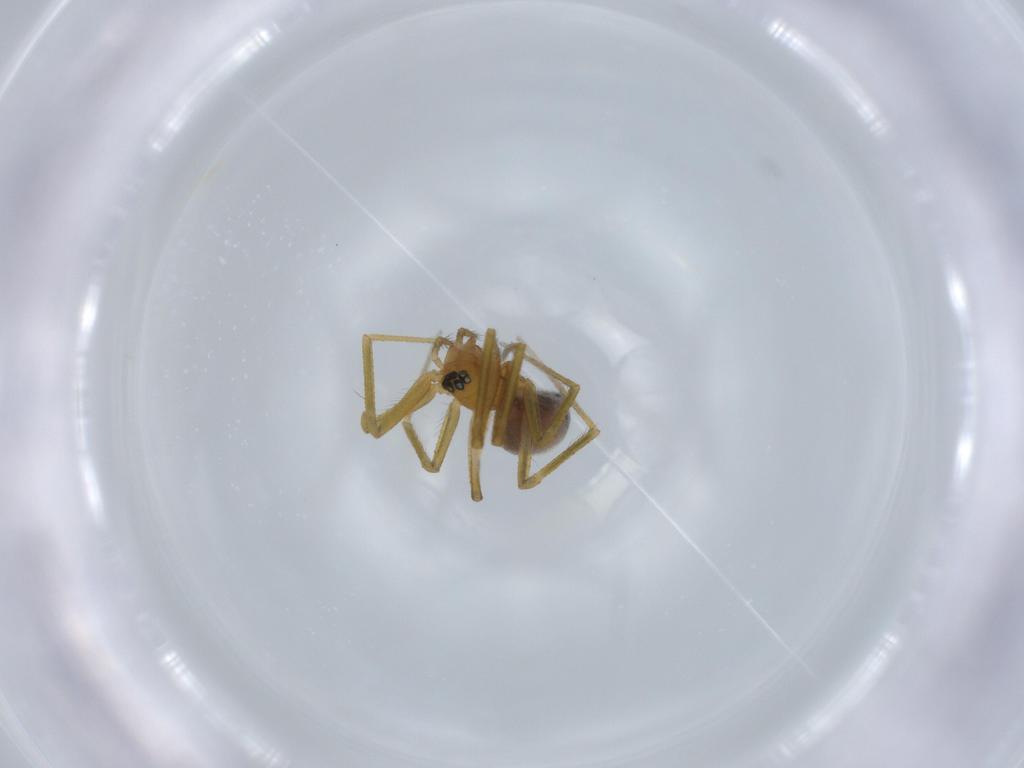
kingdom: Animalia
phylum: Arthropoda
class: Arachnida
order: Araneae
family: Linyphiidae
